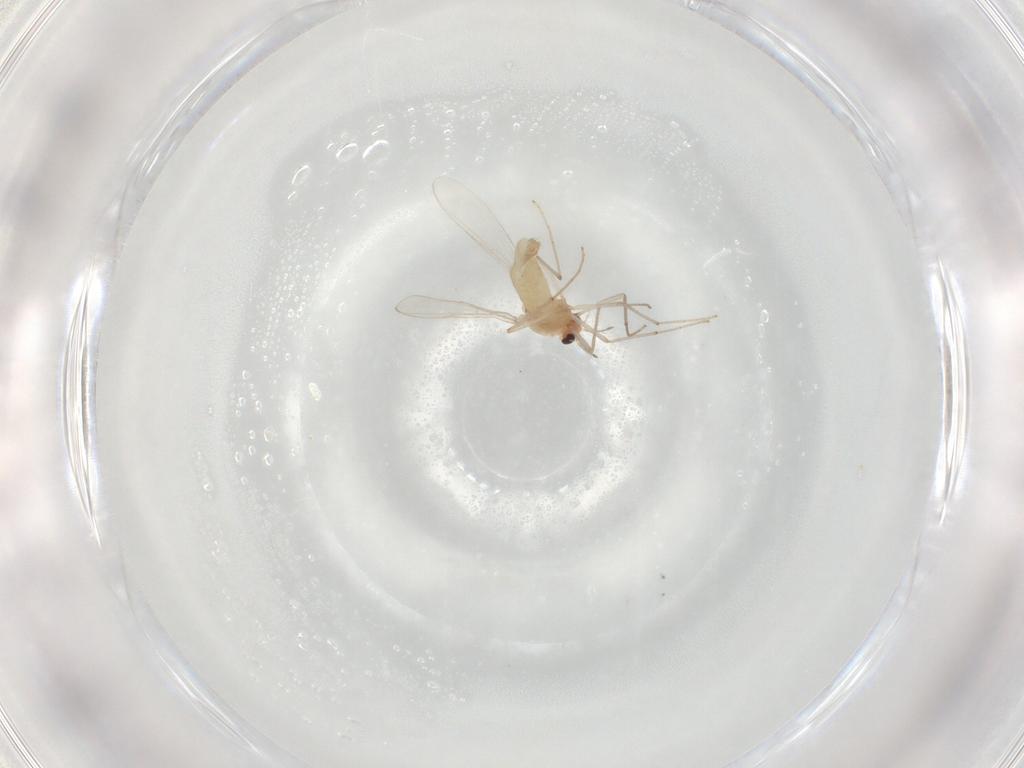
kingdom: Animalia
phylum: Arthropoda
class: Insecta
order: Diptera
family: Chironomidae
